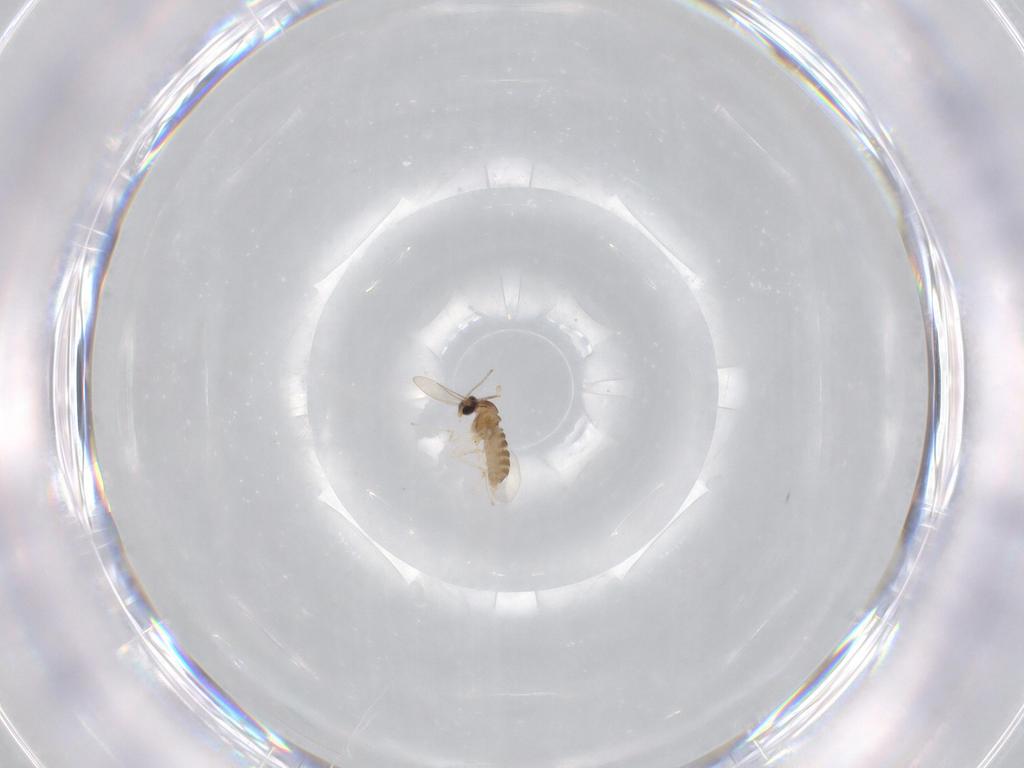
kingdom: Animalia
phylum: Arthropoda
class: Insecta
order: Diptera
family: Cecidomyiidae
